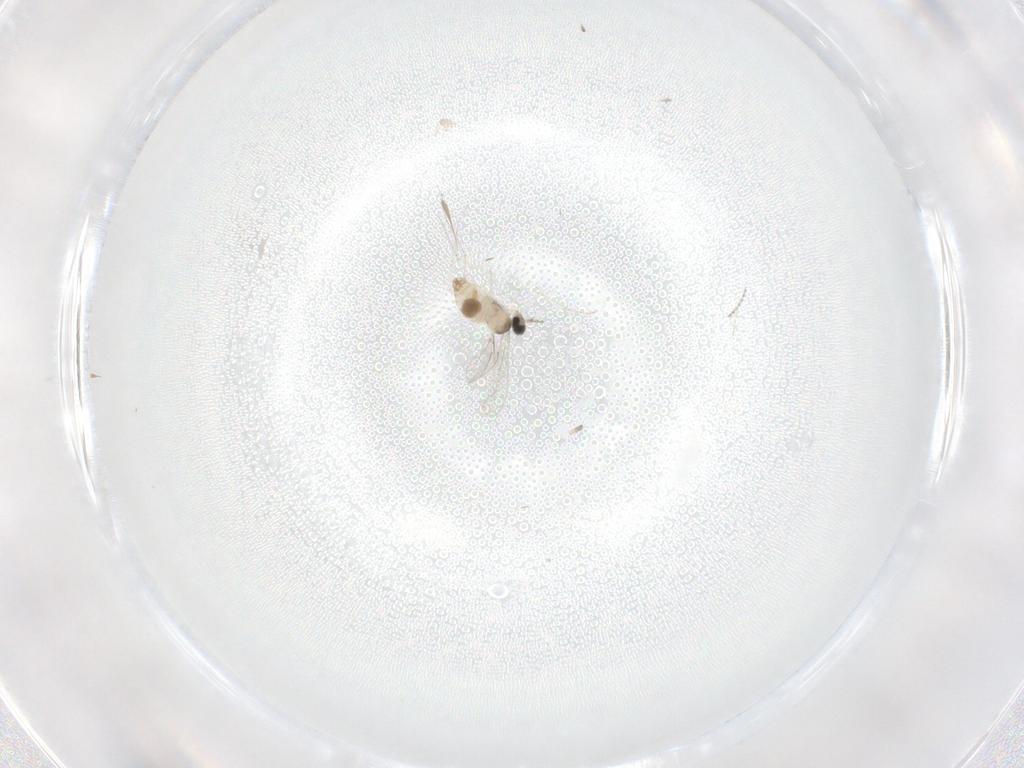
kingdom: Animalia
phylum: Arthropoda
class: Insecta
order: Diptera
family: Cecidomyiidae
